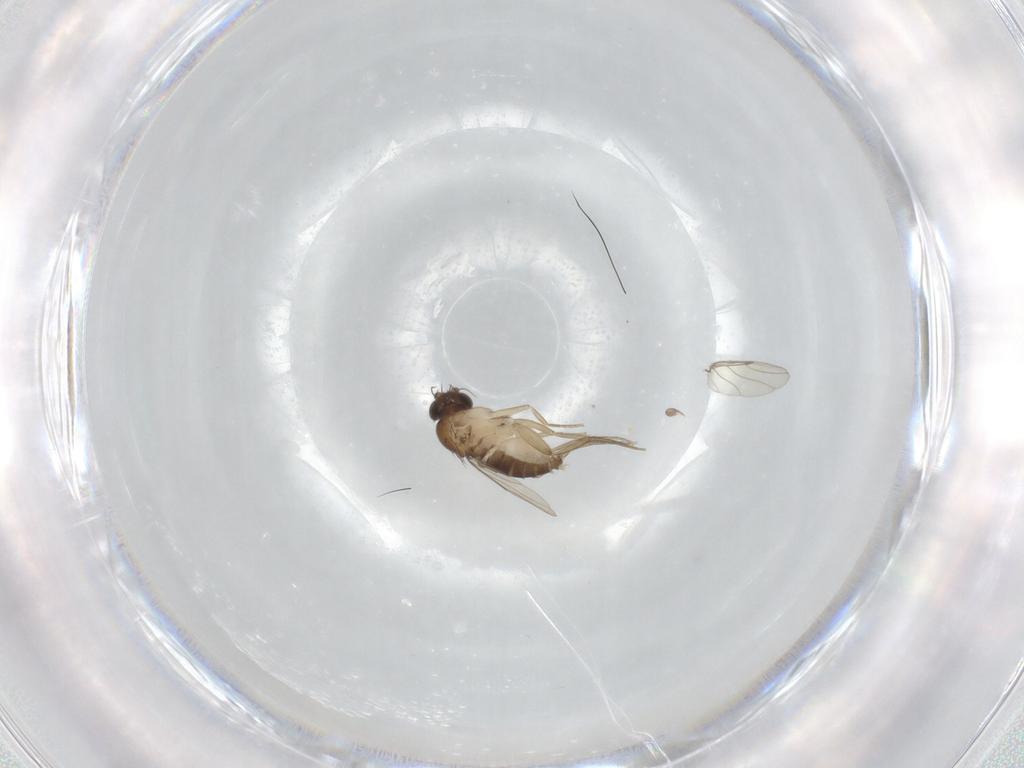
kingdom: Animalia
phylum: Arthropoda
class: Insecta
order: Diptera
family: Phoridae
